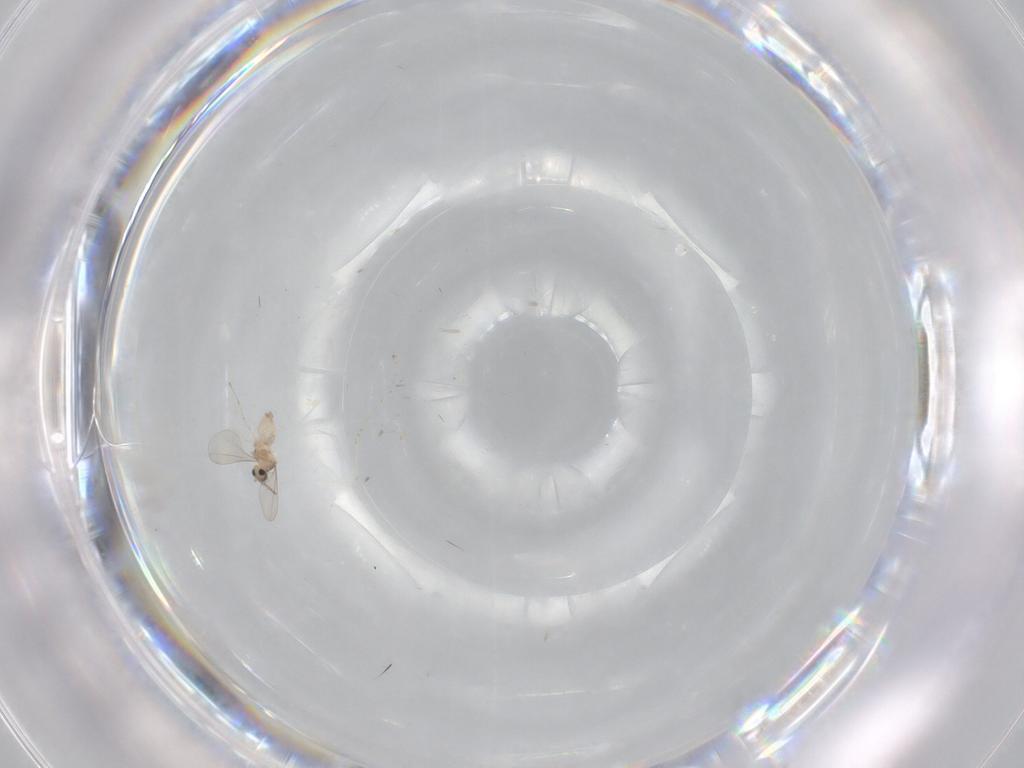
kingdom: Animalia
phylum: Arthropoda
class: Insecta
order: Diptera
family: Cecidomyiidae
